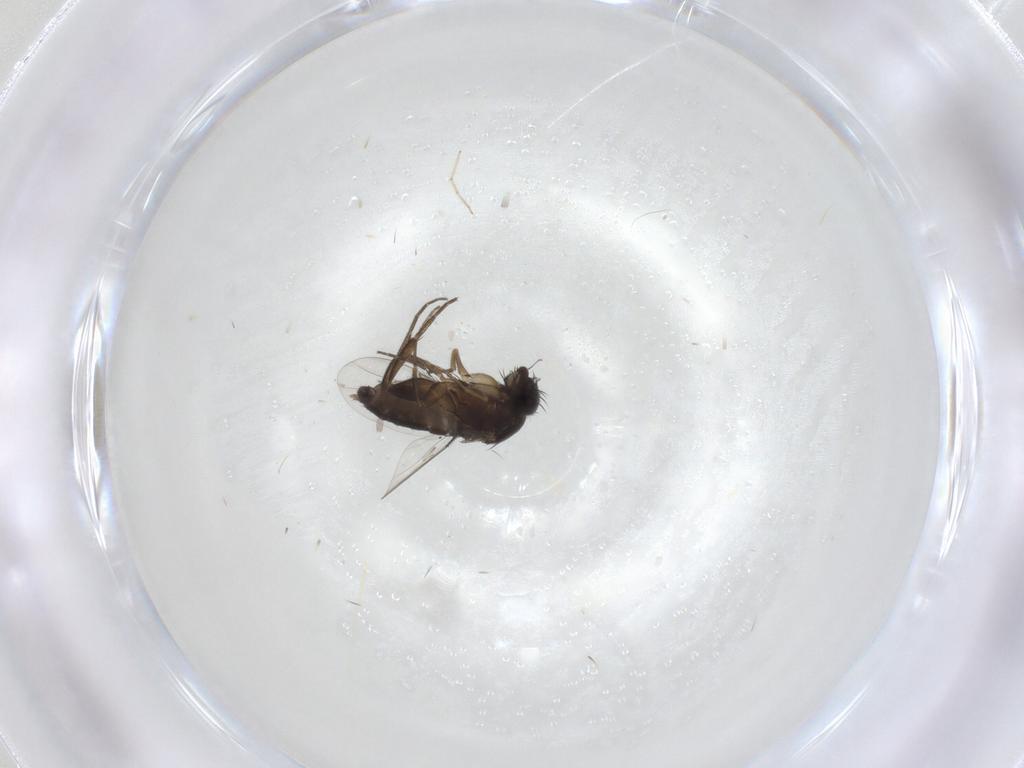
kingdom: Animalia
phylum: Arthropoda
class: Insecta
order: Diptera
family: Phoridae
